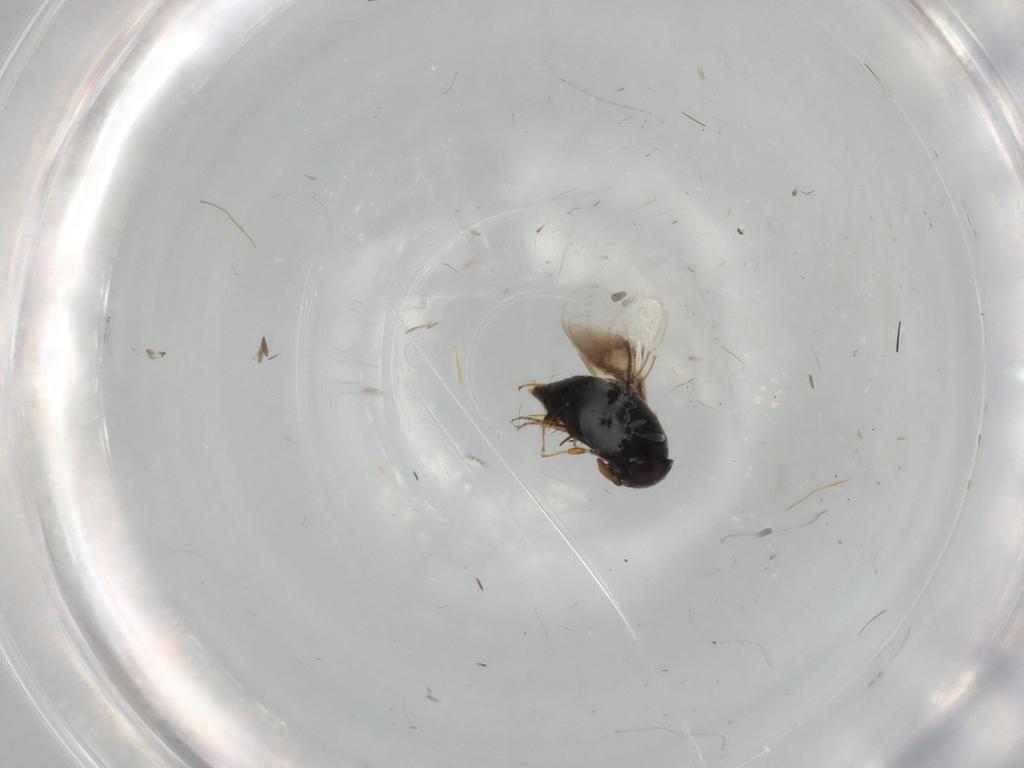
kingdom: Animalia
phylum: Arthropoda
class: Insecta
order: Hymenoptera
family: Signiphoridae
